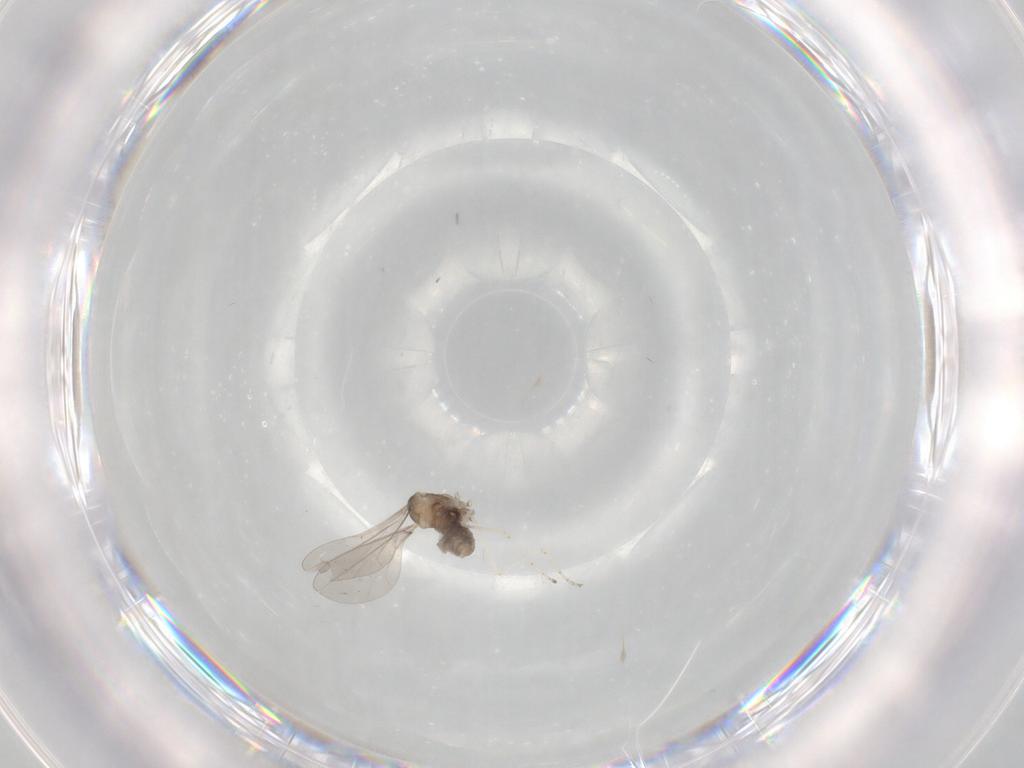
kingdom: Animalia
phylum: Arthropoda
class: Insecta
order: Diptera
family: Cecidomyiidae
